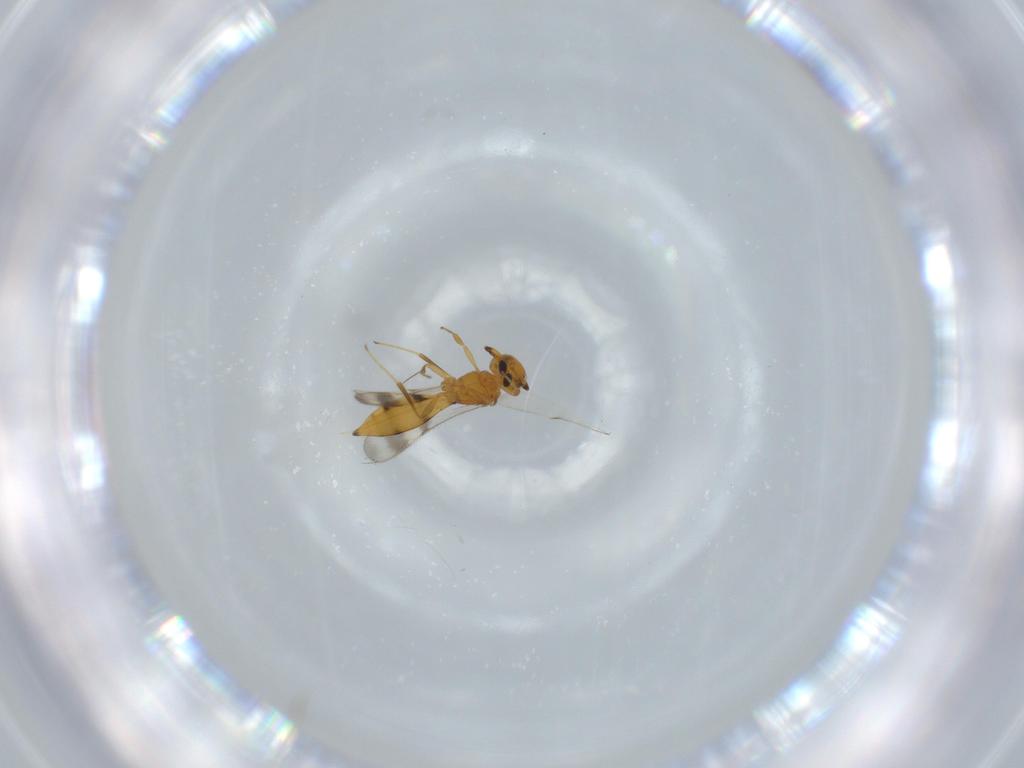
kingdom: Animalia
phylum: Arthropoda
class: Insecta
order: Hymenoptera
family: Scelionidae
